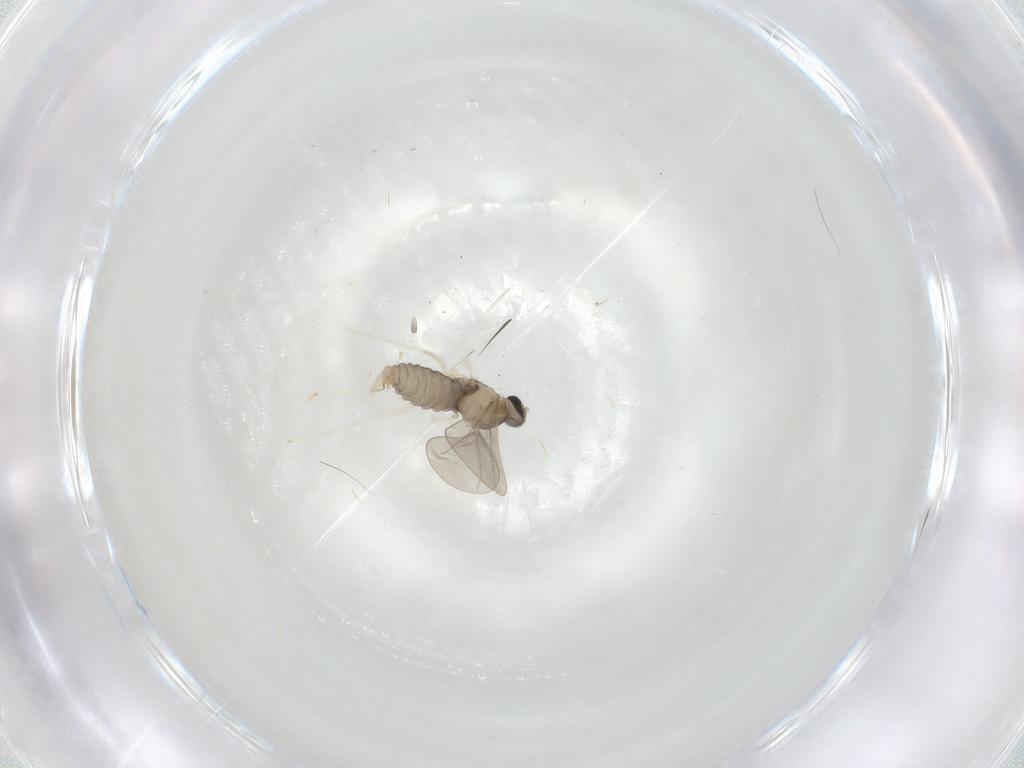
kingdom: Animalia
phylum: Arthropoda
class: Insecta
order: Diptera
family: Cecidomyiidae
